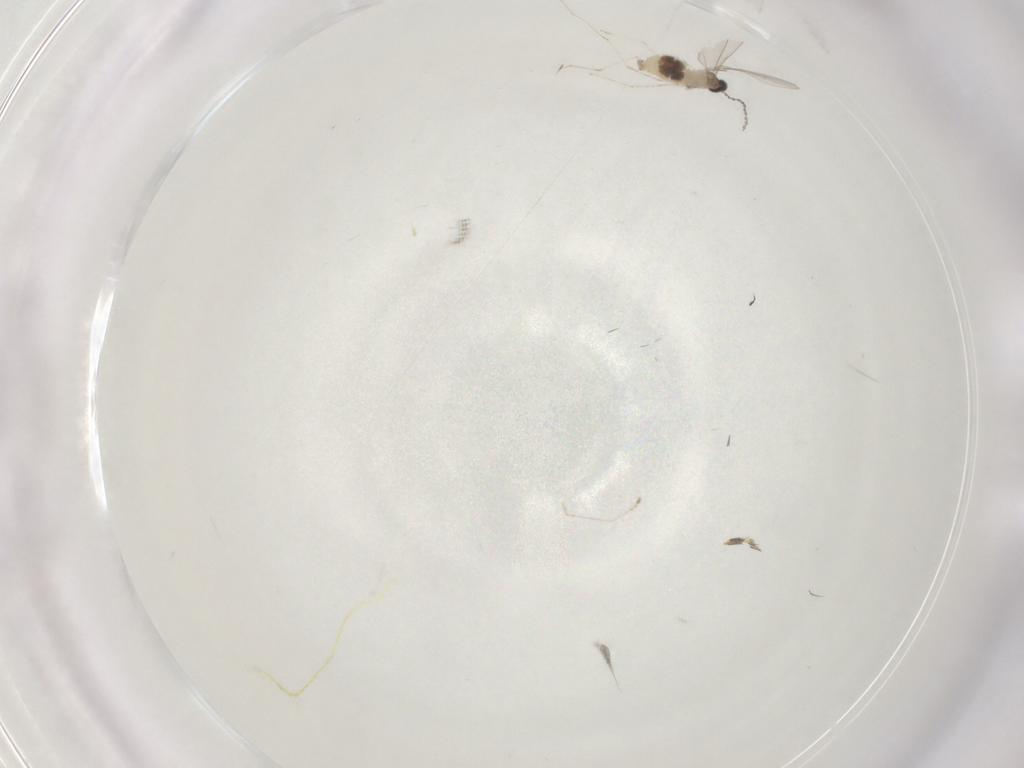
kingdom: Animalia
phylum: Arthropoda
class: Insecta
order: Diptera
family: Cecidomyiidae
